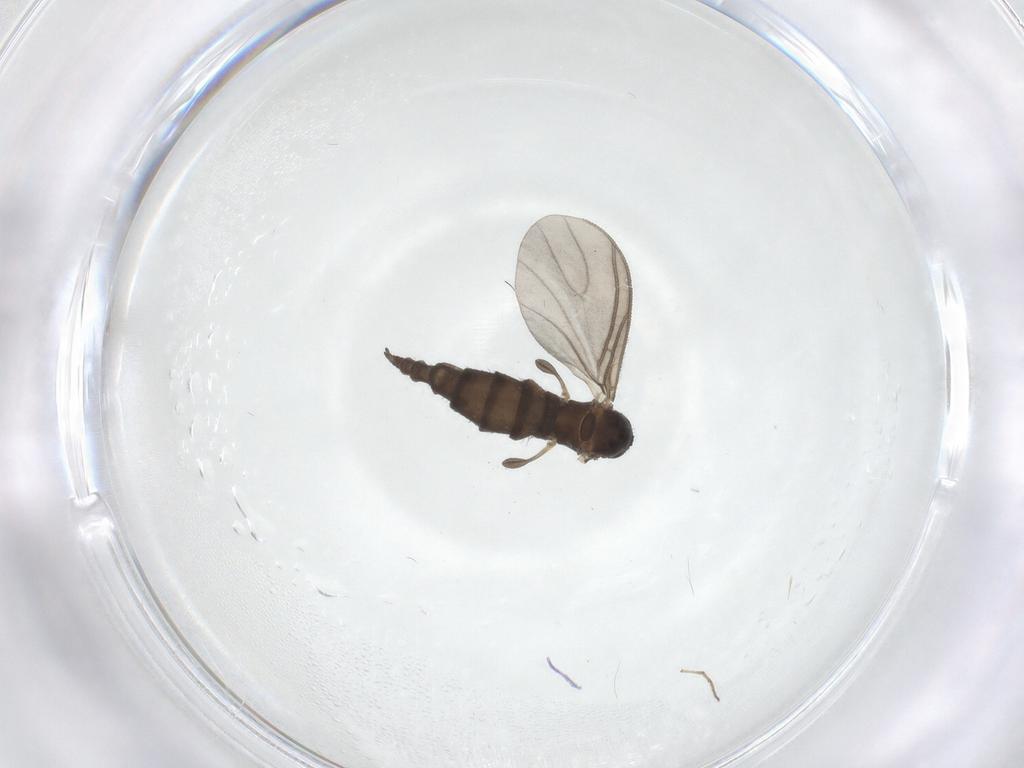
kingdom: Animalia
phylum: Arthropoda
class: Insecta
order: Diptera
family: Sciaridae
